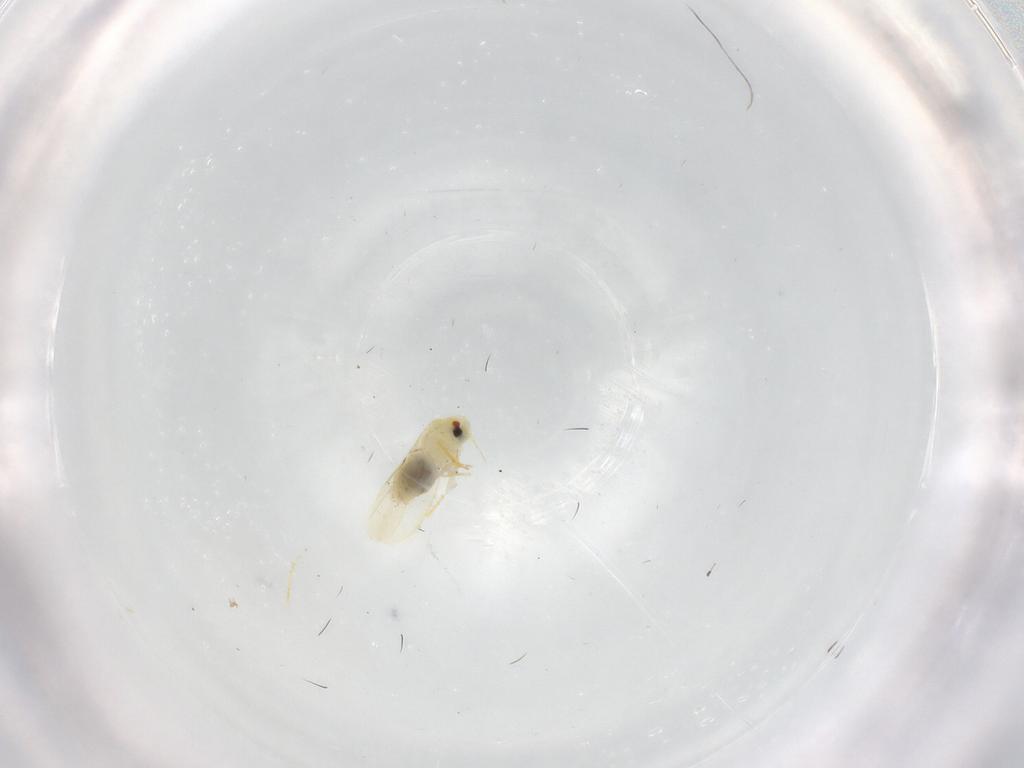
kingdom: Animalia
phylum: Arthropoda
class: Insecta
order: Hemiptera
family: Aleyrodidae
